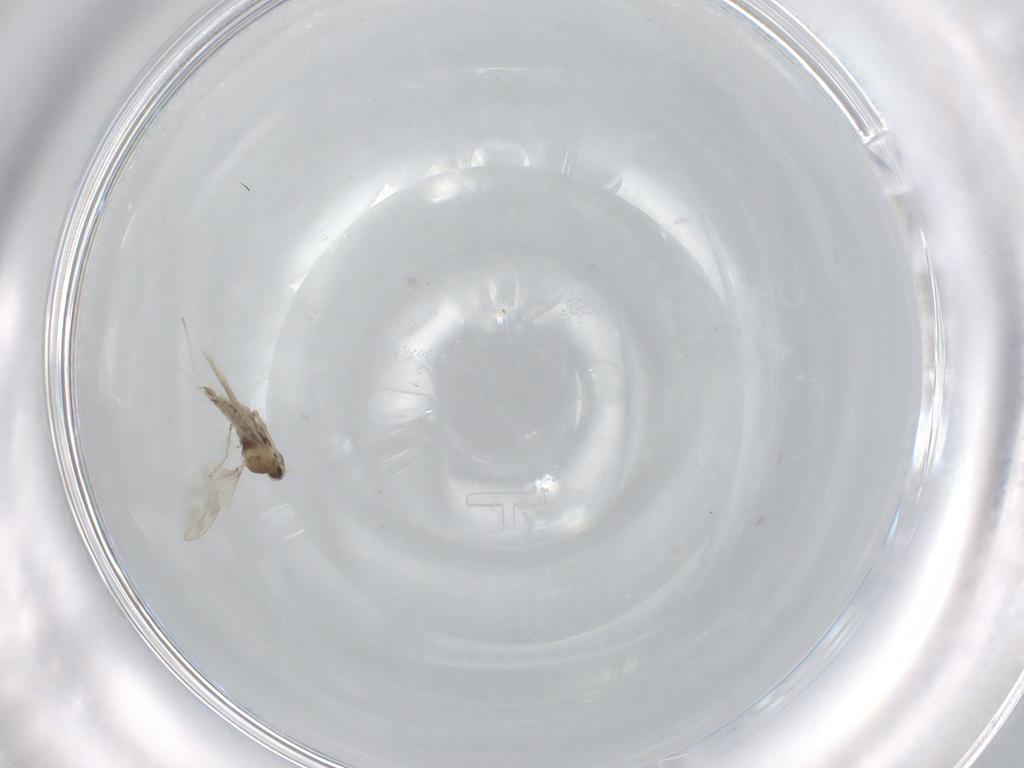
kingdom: Animalia
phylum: Arthropoda
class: Insecta
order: Diptera
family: Cecidomyiidae
